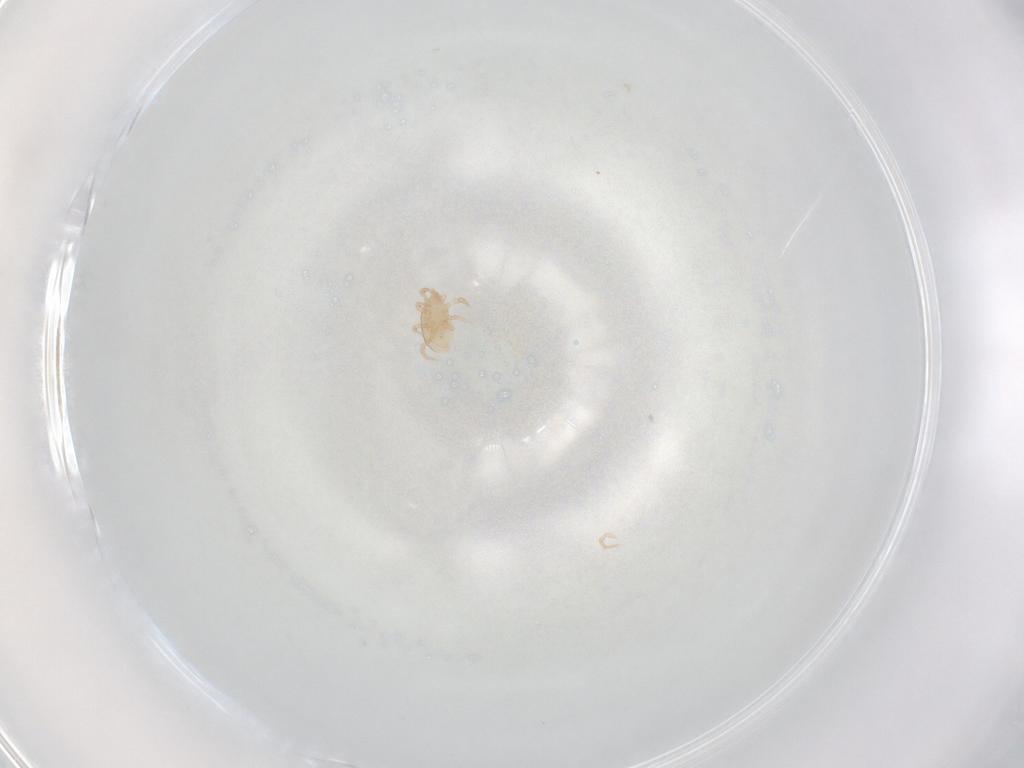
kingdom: Animalia
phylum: Arthropoda
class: Arachnida
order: Mesostigmata
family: Ascidae
